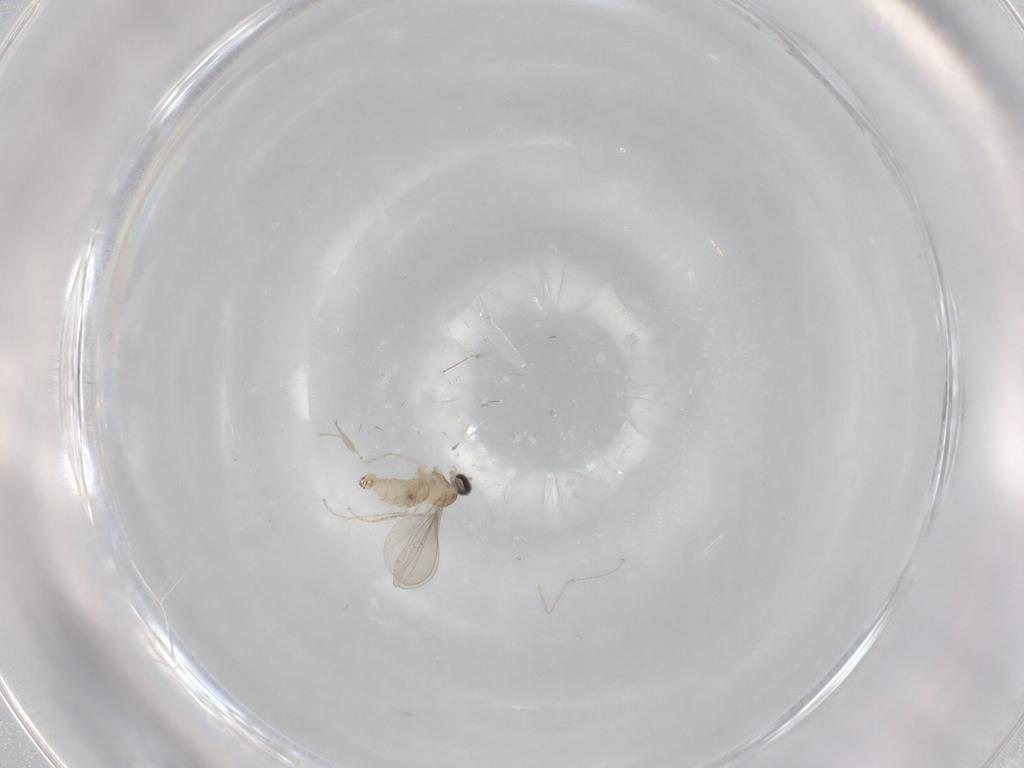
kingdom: Animalia
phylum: Arthropoda
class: Insecta
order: Diptera
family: Cecidomyiidae
